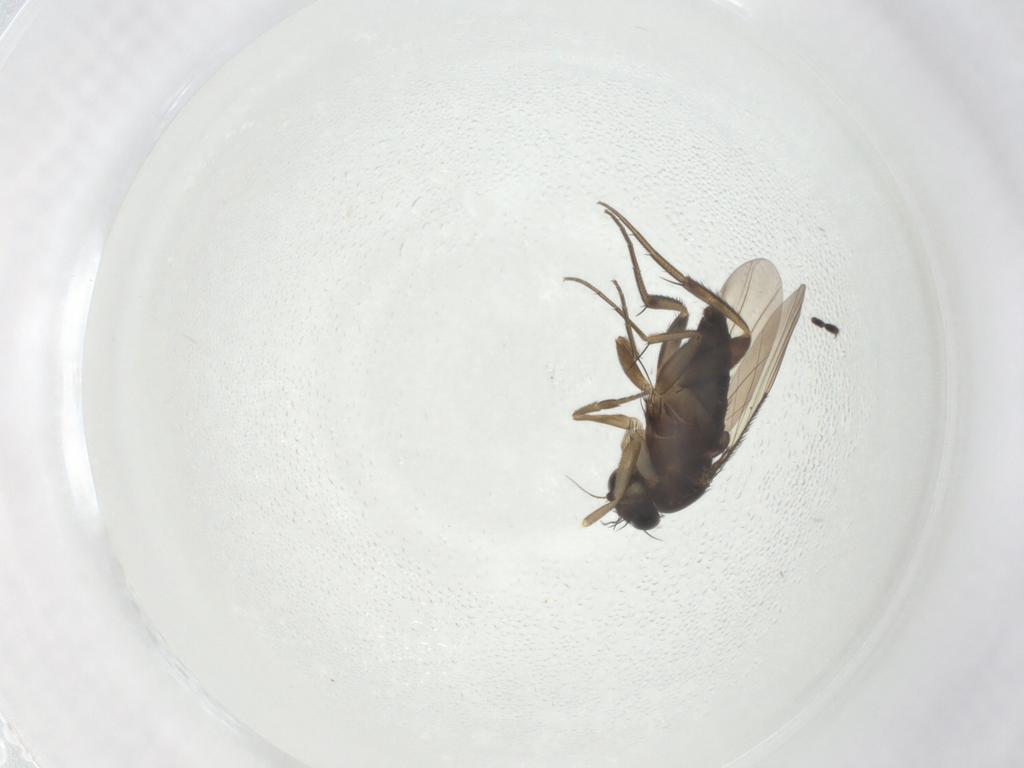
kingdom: Animalia
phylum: Arthropoda
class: Insecta
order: Diptera
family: Phoridae
